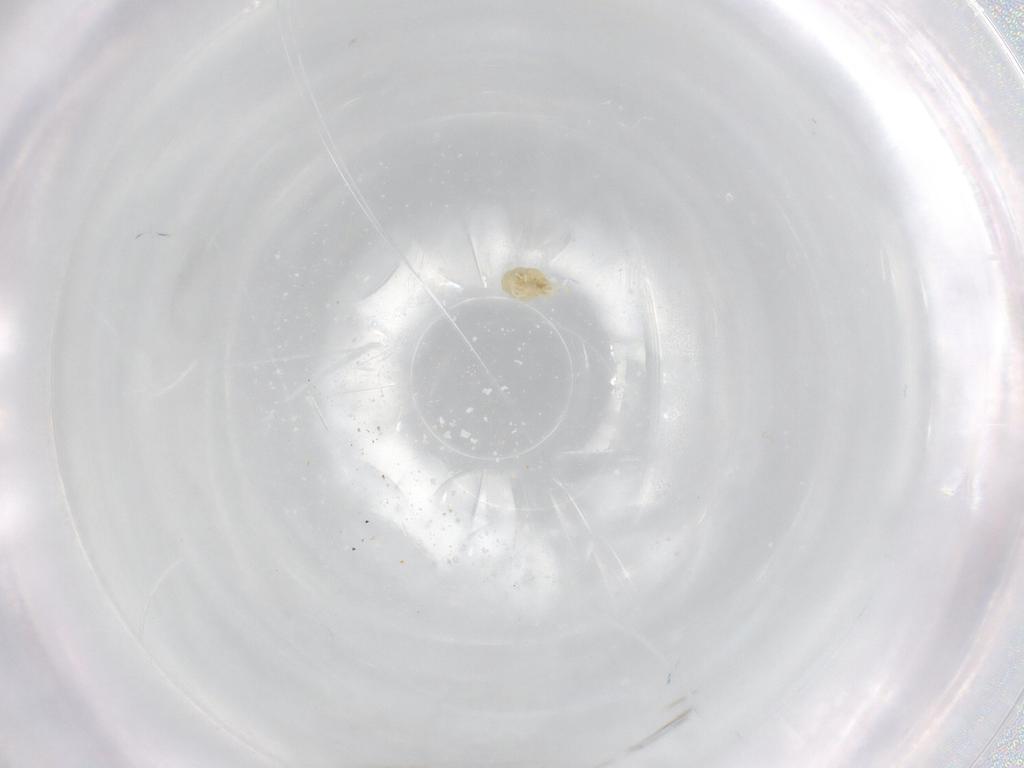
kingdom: Animalia
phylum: Arthropoda
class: Arachnida
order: Trombidiformes
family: Tetranychidae
